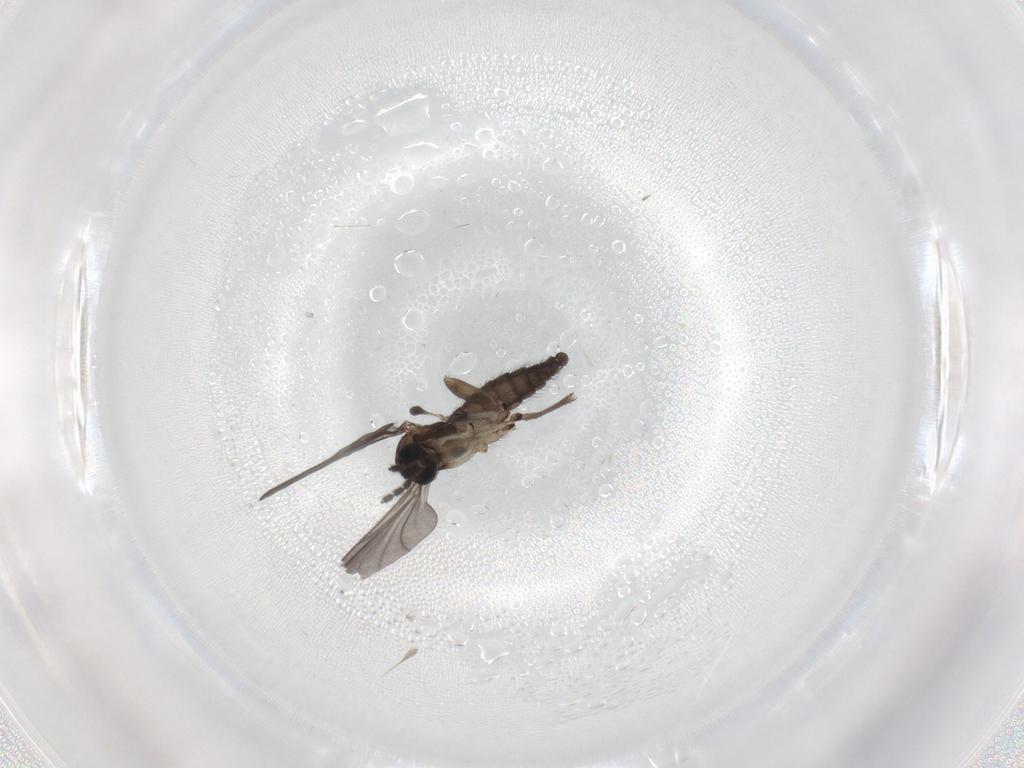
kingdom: Animalia
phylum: Arthropoda
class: Insecta
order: Diptera
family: Sciaridae
